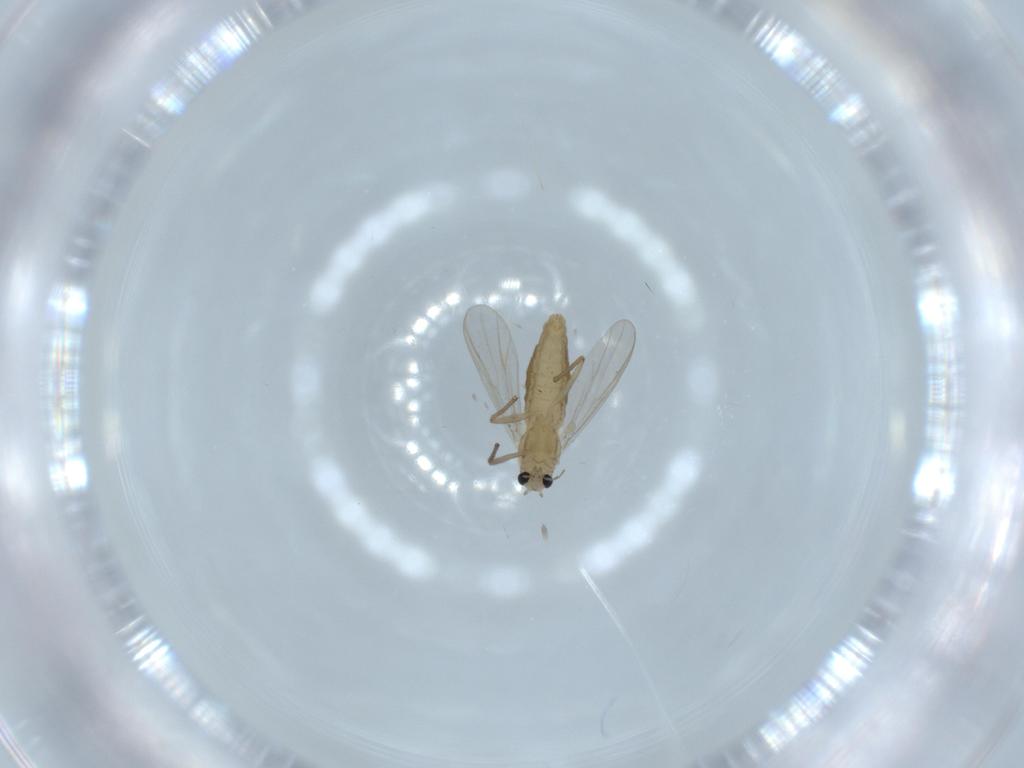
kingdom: Animalia
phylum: Arthropoda
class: Insecta
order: Diptera
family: Chironomidae
